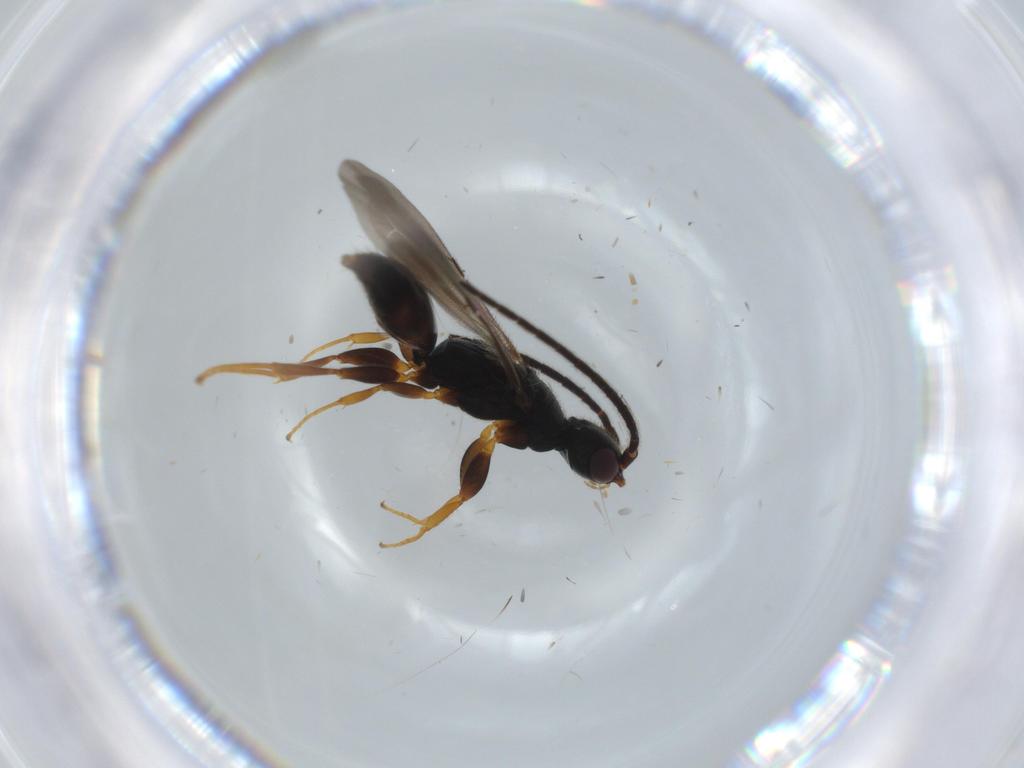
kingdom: Animalia
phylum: Arthropoda
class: Insecta
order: Hymenoptera
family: Bethylidae
